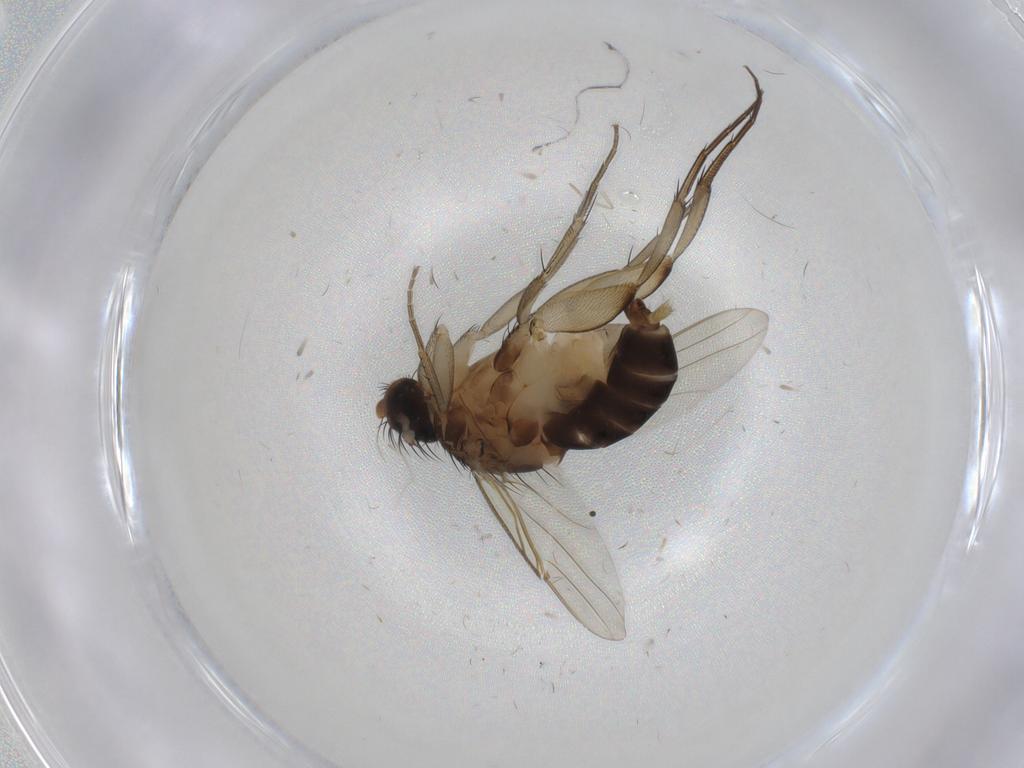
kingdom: Animalia
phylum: Arthropoda
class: Insecta
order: Diptera
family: Phoridae
